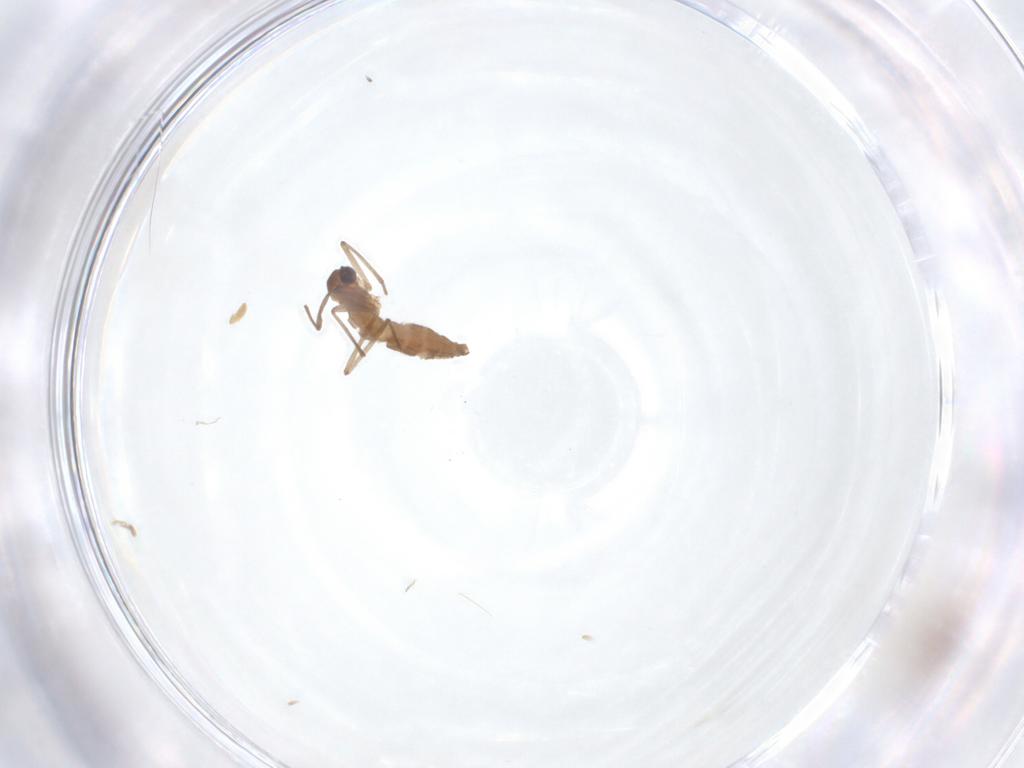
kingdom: Animalia
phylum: Arthropoda
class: Insecta
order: Diptera
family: Cecidomyiidae
